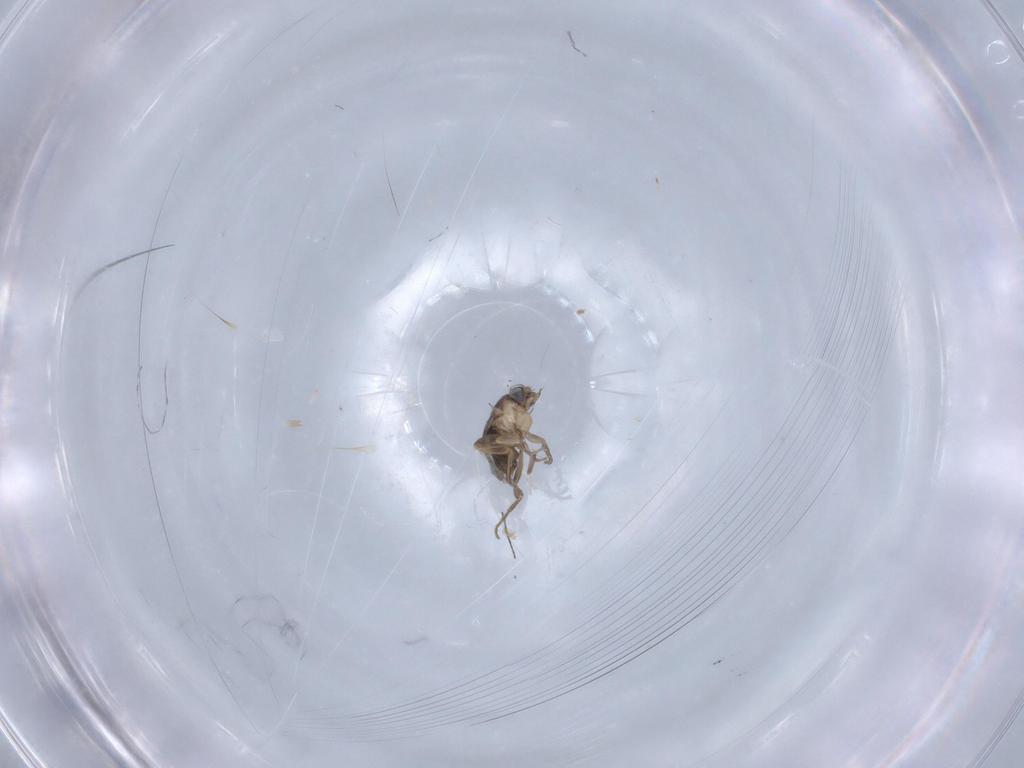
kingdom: Animalia
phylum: Arthropoda
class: Insecta
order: Diptera
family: Phoridae
